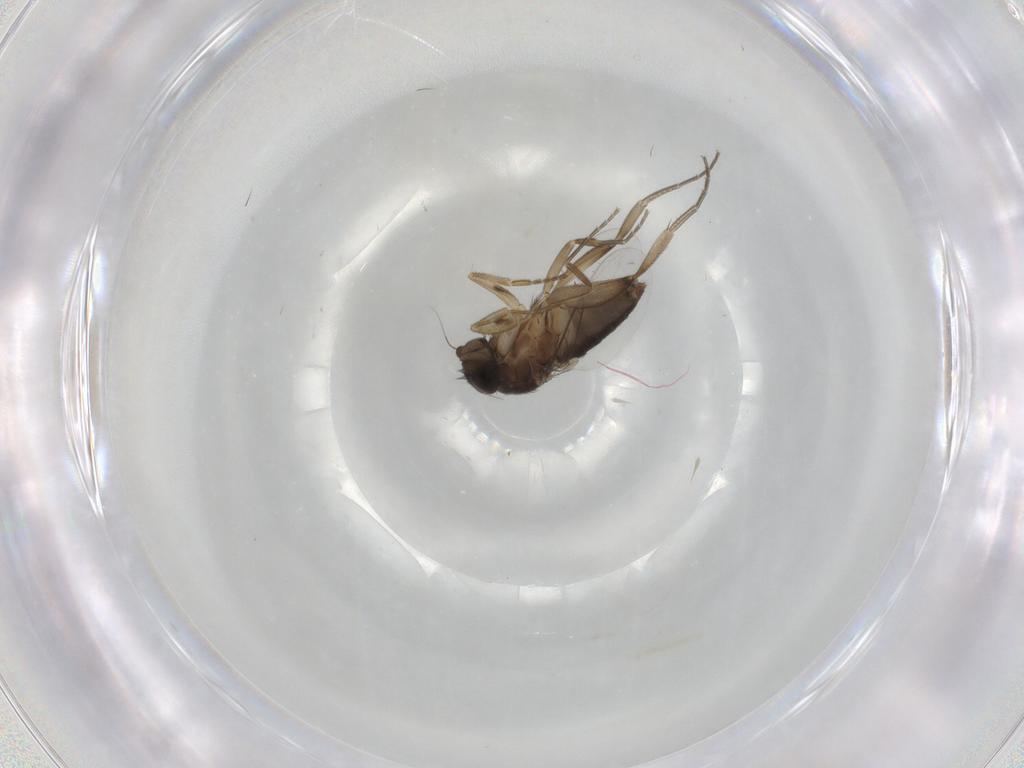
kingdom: Animalia
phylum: Arthropoda
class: Insecta
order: Diptera
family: Phoridae
